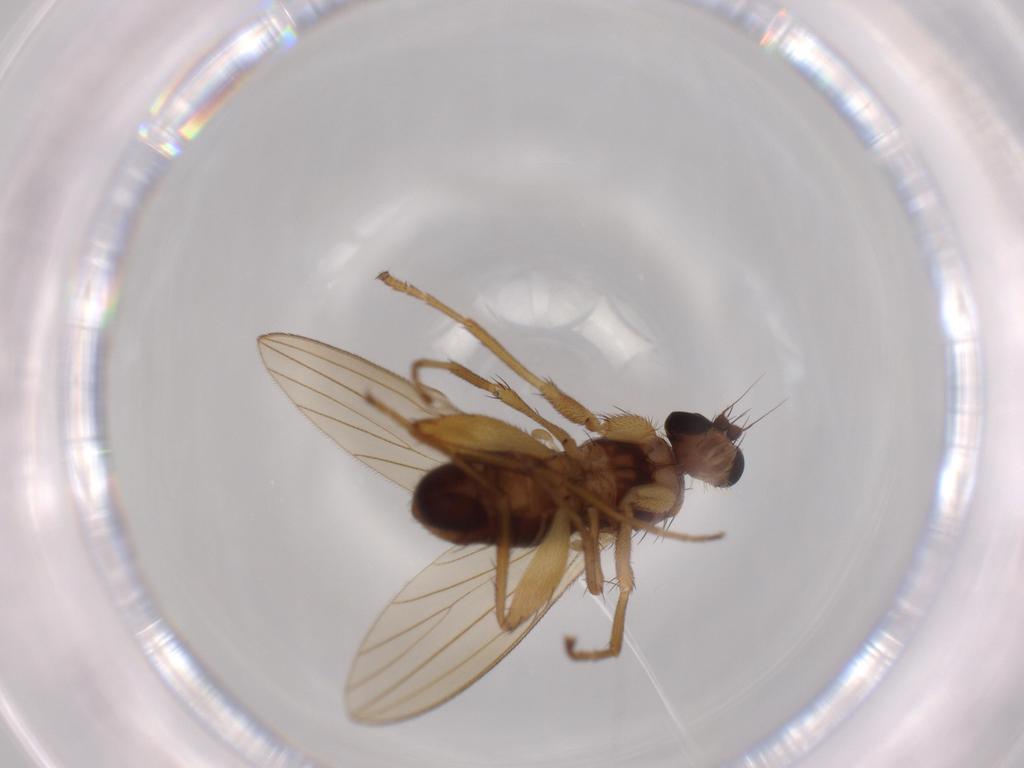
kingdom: Animalia
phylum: Arthropoda
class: Insecta
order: Diptera
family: Lonchopteridae
